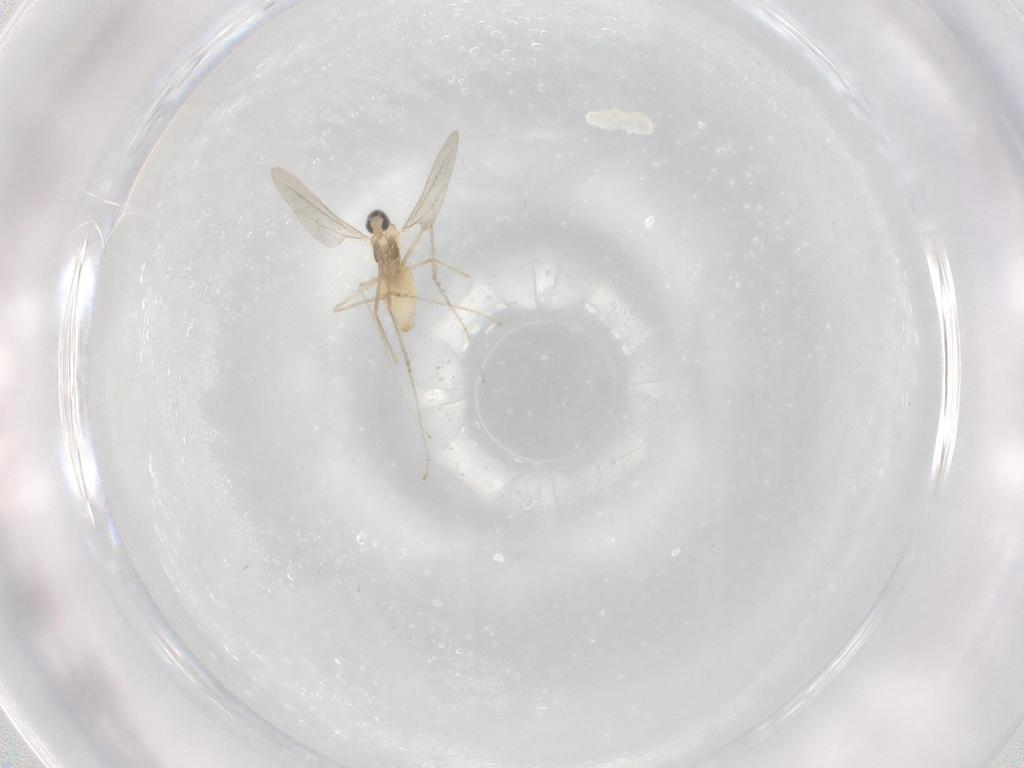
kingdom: Animalia
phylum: Arthropoda
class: Insecta
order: Diptera
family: Cecidomyiidae
